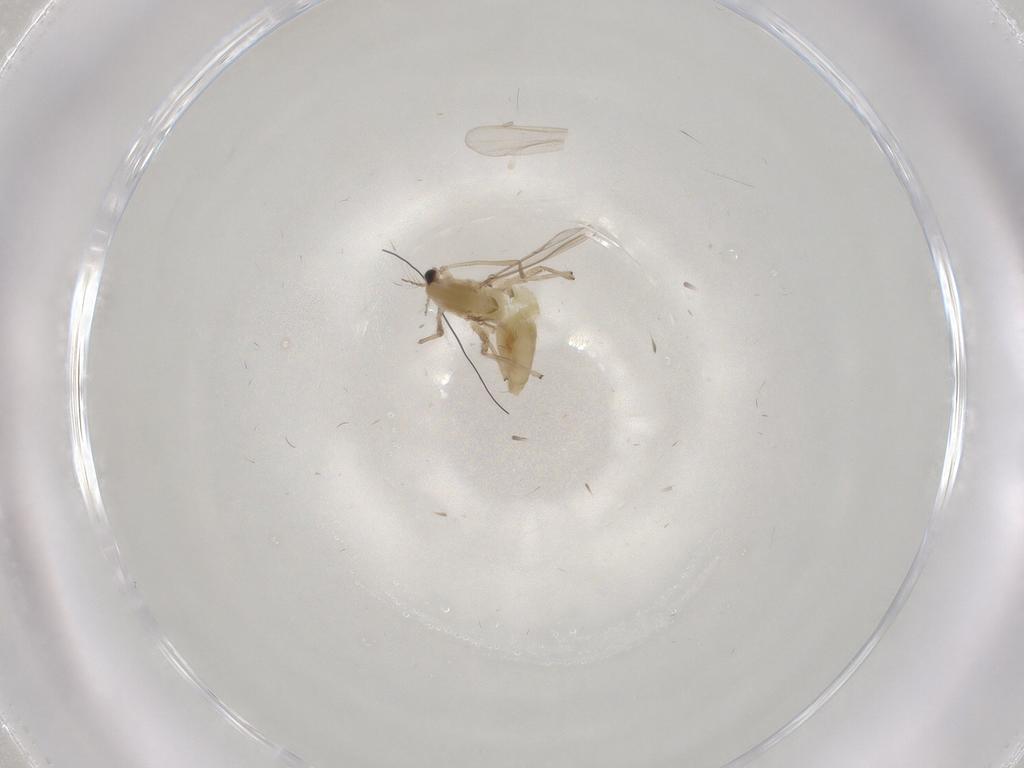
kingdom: Animalia
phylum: Arthropoda
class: Insecta
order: Diptera
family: Chironomidae
